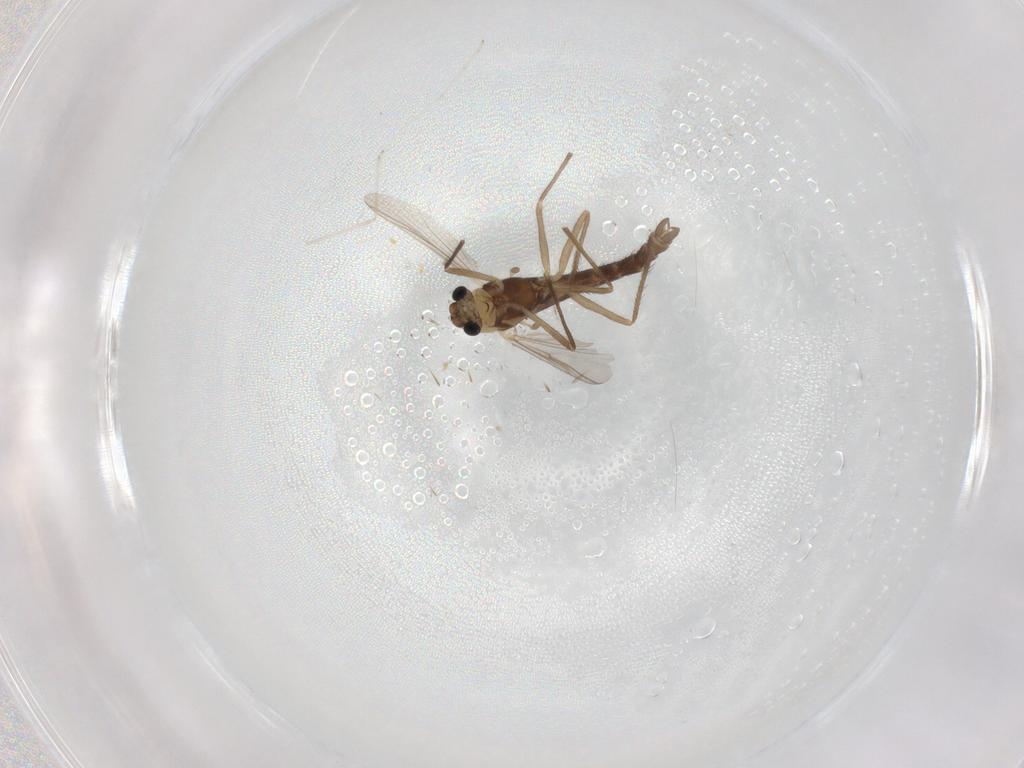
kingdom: Animalia
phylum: Arthropoda
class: Insecta
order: Diptera
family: Chironomidae
